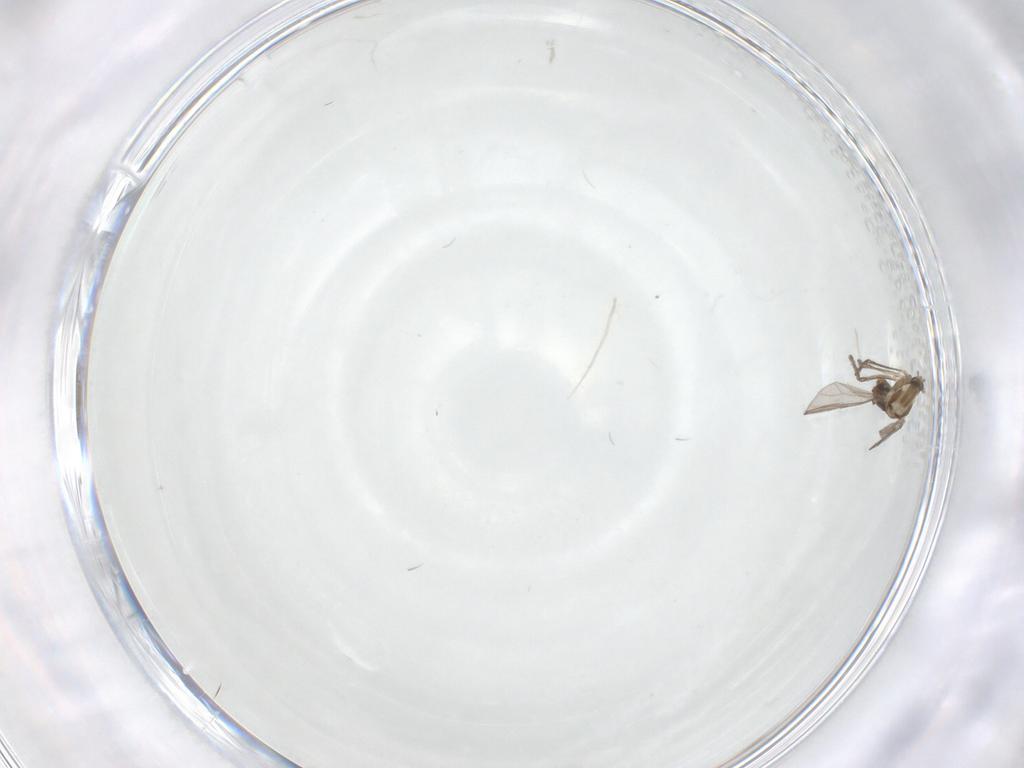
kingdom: Animalia
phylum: Arthropoda
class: Insecta
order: Diptera
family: Chironomidae
